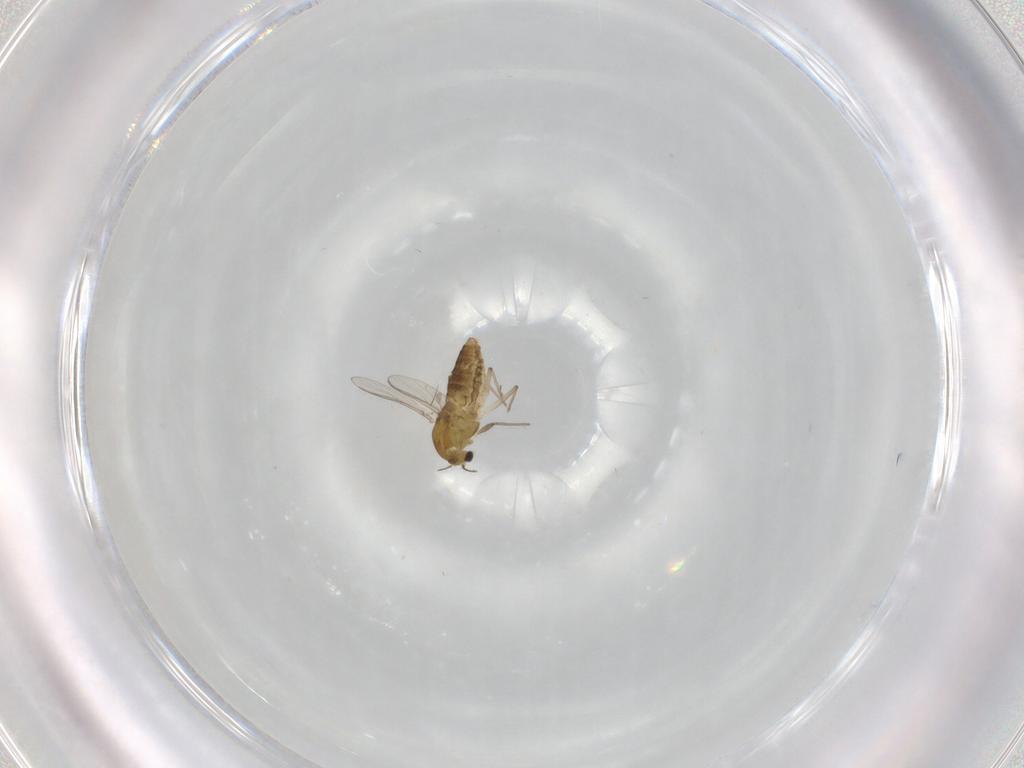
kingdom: Animalia
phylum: Arthropoda
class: Insecta
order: Diptera
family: Chironomidae
